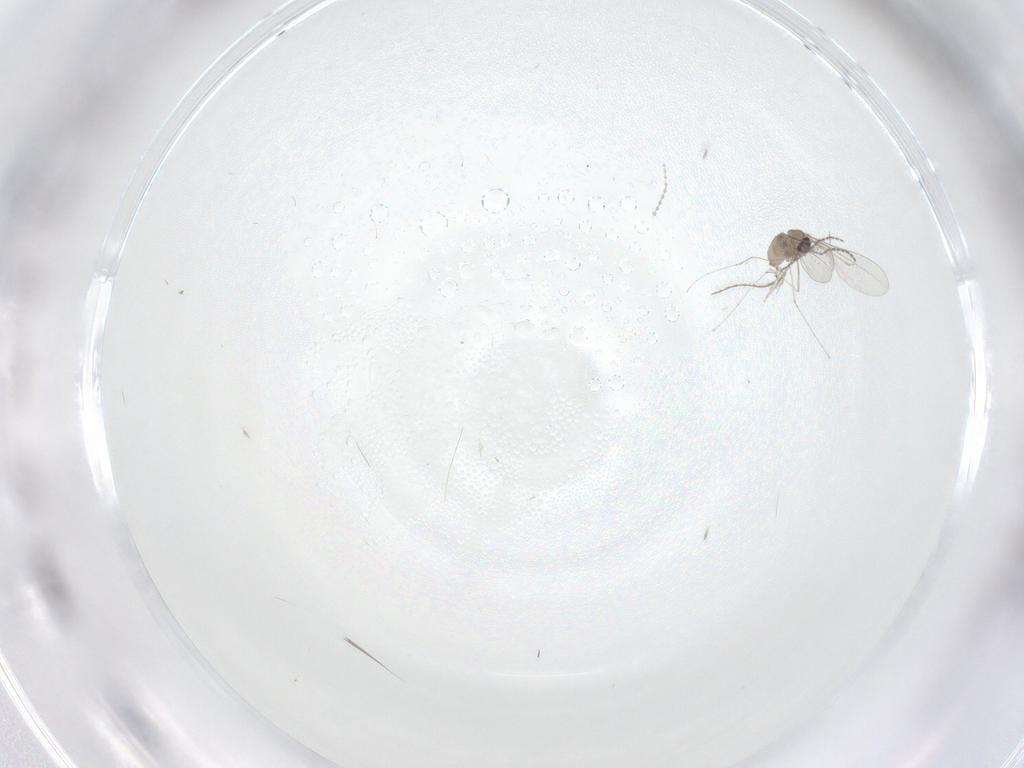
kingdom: Animalia
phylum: Arthropoda
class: Insecta
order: Diptera
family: Cecidomyiidae
